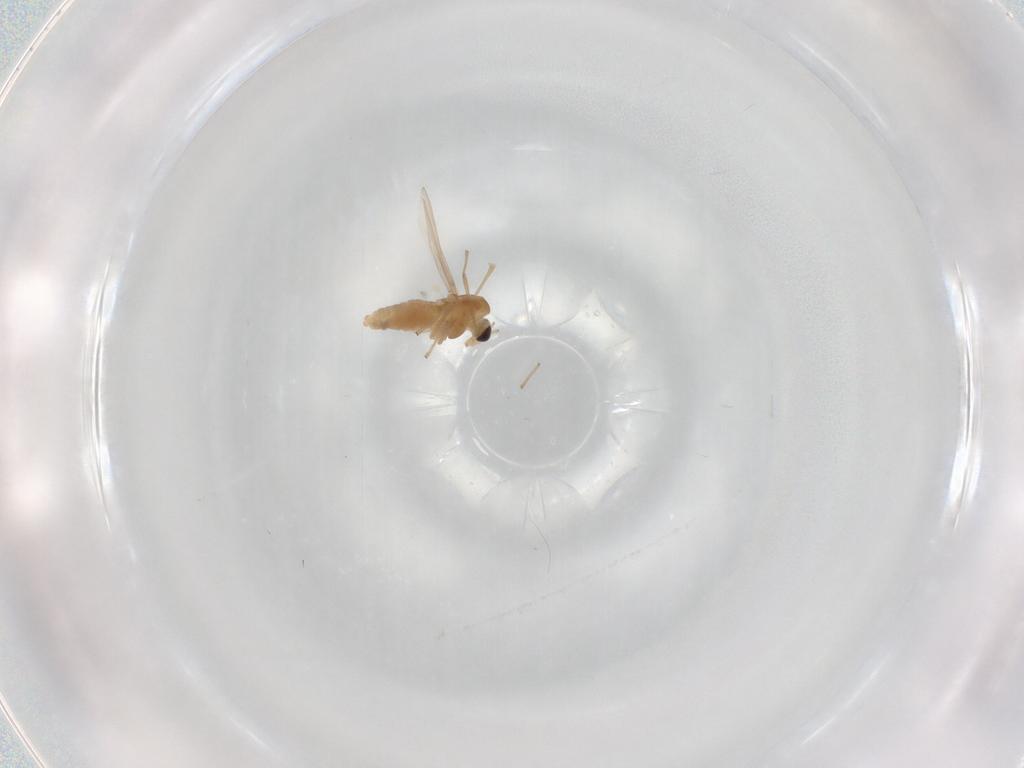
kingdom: Animalia
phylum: Arthropoda
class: Insecta
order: Diptera
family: Chironomidae
